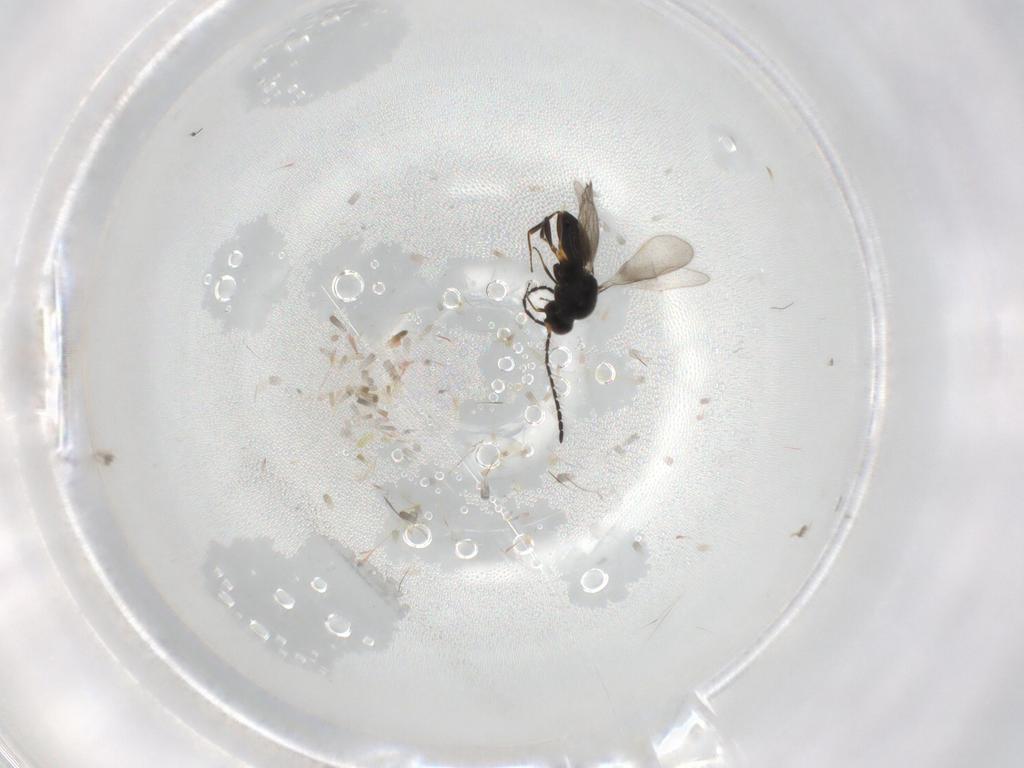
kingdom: Animalia
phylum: Arthropoda
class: Insecta
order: Hymenoptera
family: Ceraphronidae
